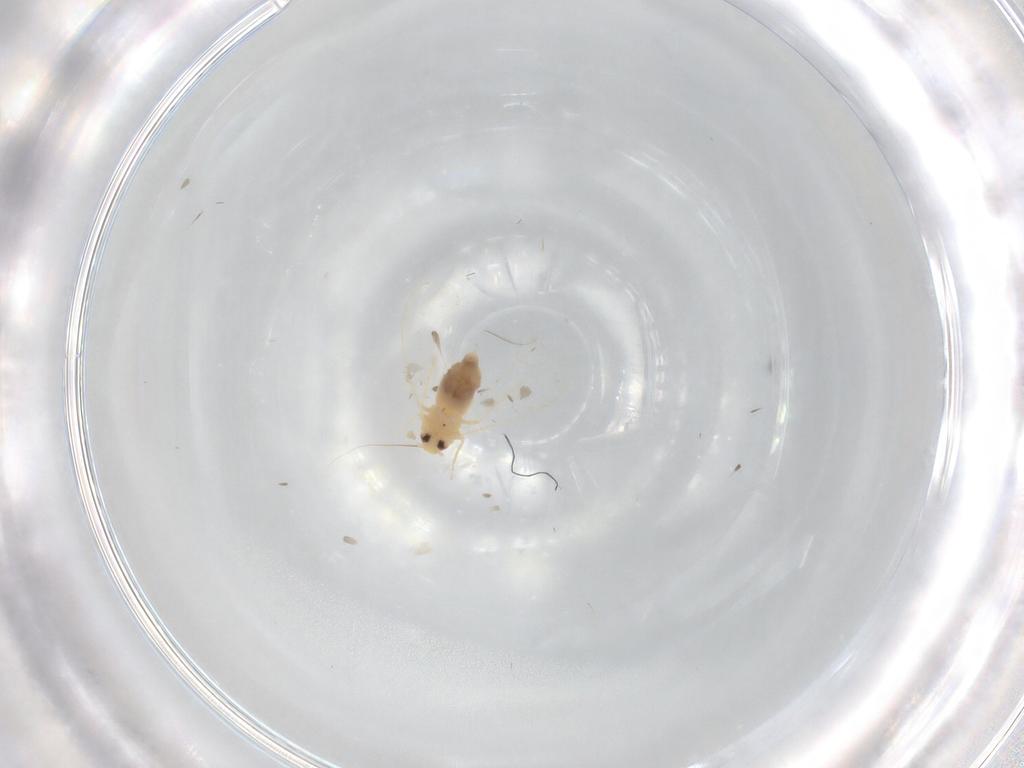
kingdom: Animalia
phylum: Arthropoda
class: Insecta
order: Hemiptera
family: Aleyrodidae
